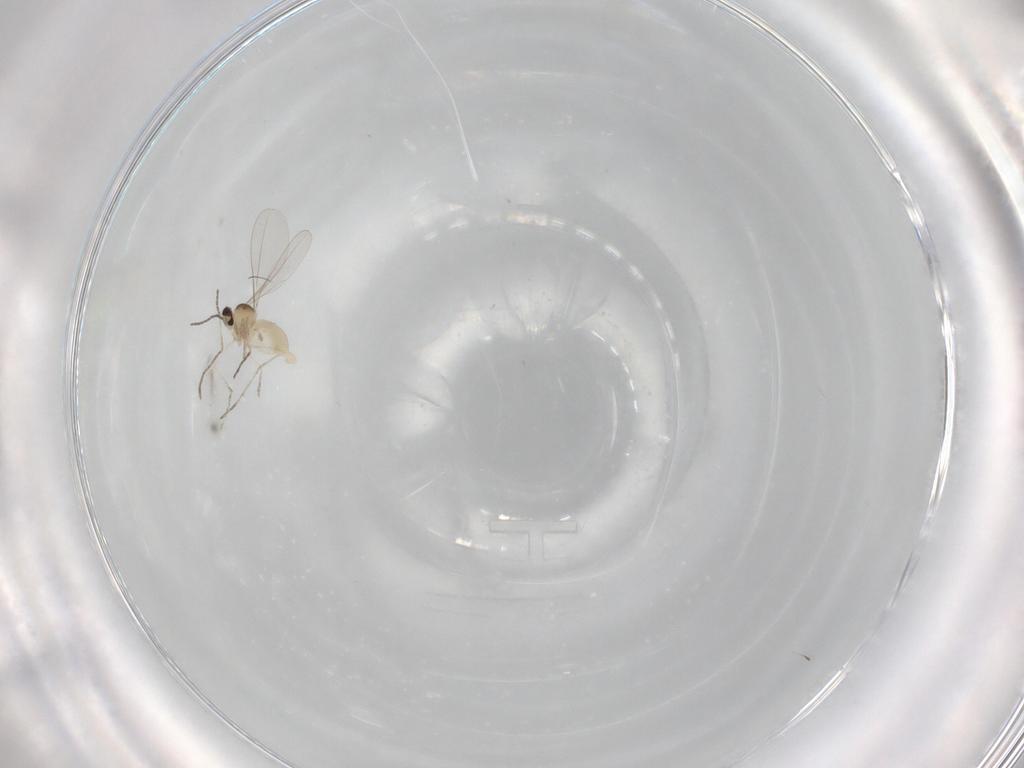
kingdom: Animalia
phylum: Arthropoda
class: Insecta
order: Diptera
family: Cecidomyiidae
